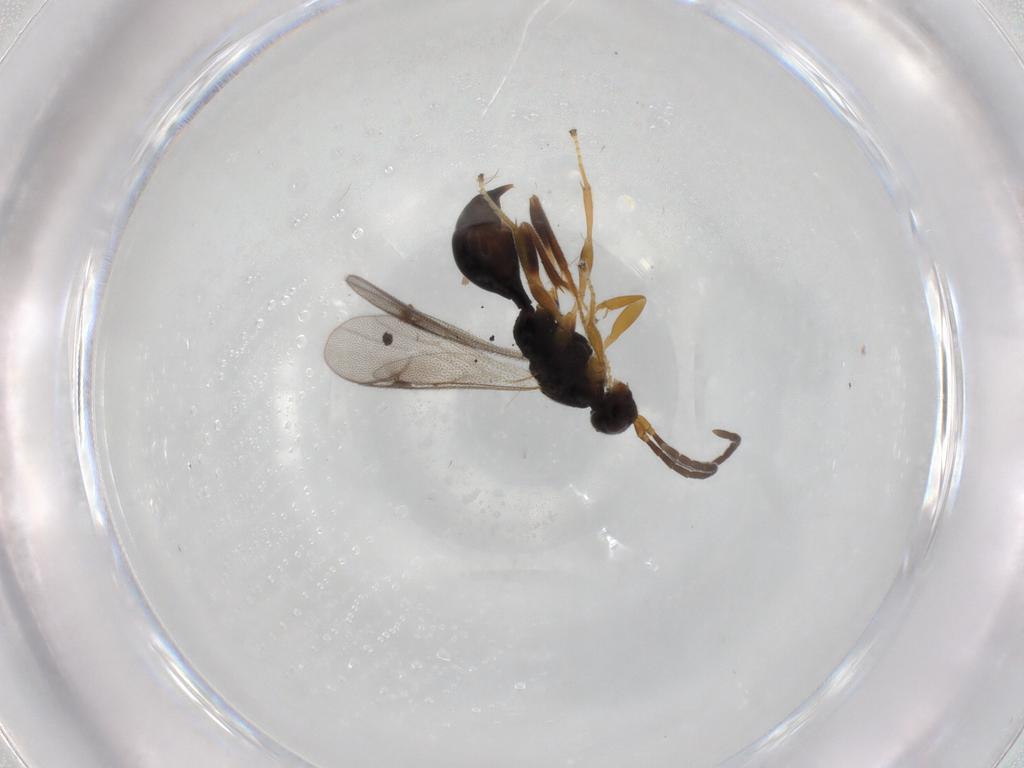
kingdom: Animalia
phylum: Arthropoda
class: Insecta
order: Hymenoptera
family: Proctotrupidae
